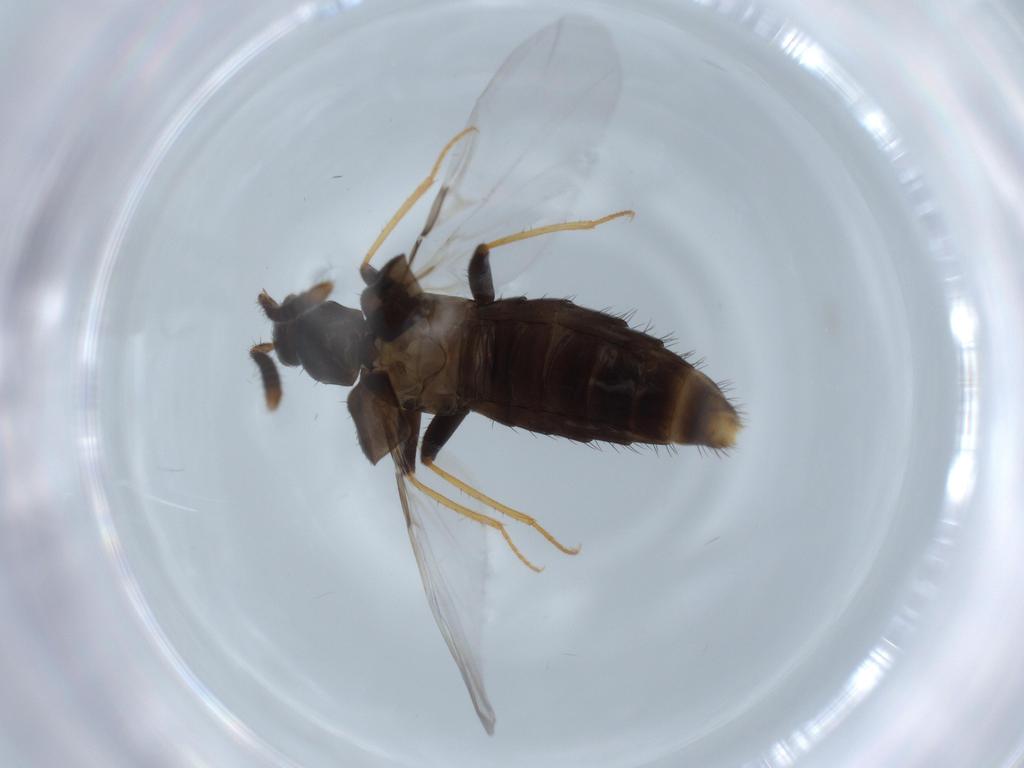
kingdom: Animalia
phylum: Arthropoda
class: Insecta
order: Coleoptera
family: Staphylinidae
